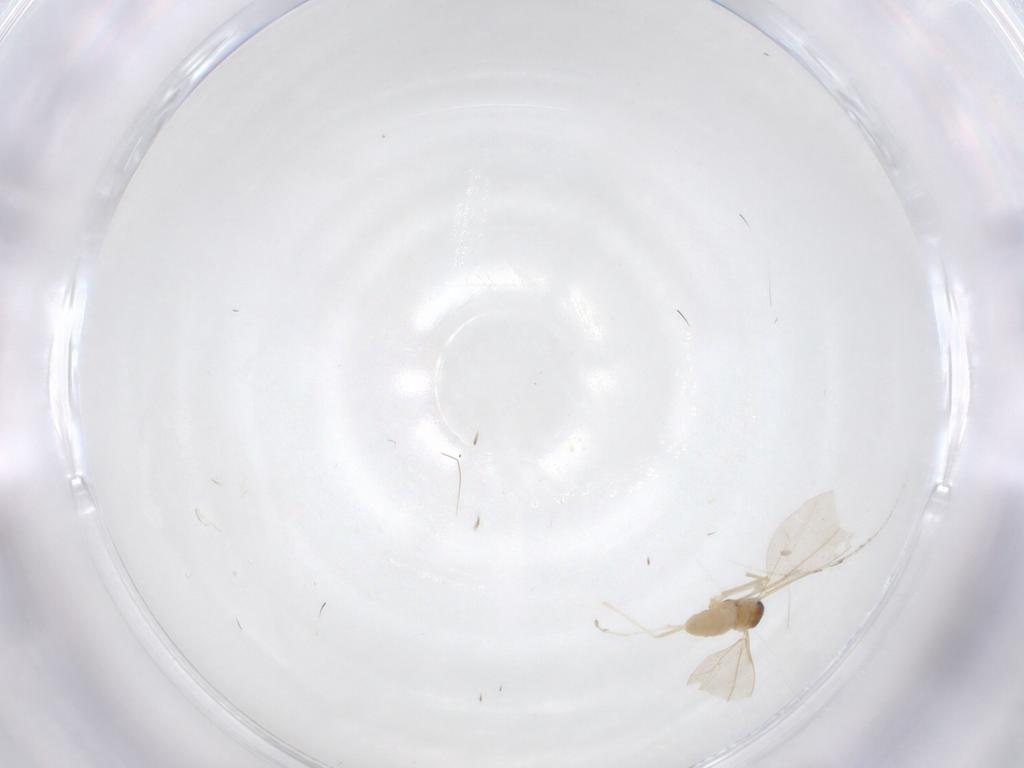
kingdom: Animalia
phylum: Arthropoda
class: Insecta
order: Diptera
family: Cecidomyiidae
